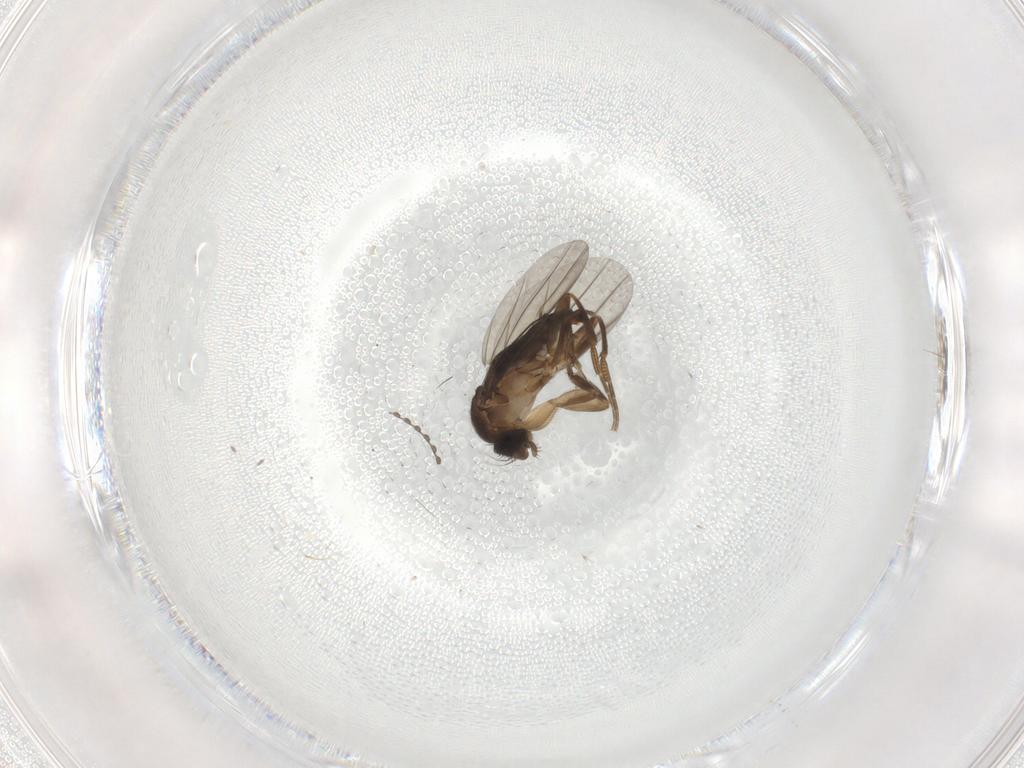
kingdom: Animalia
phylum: Arthropoda
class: Insecta
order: Diptera
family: Phoridae
